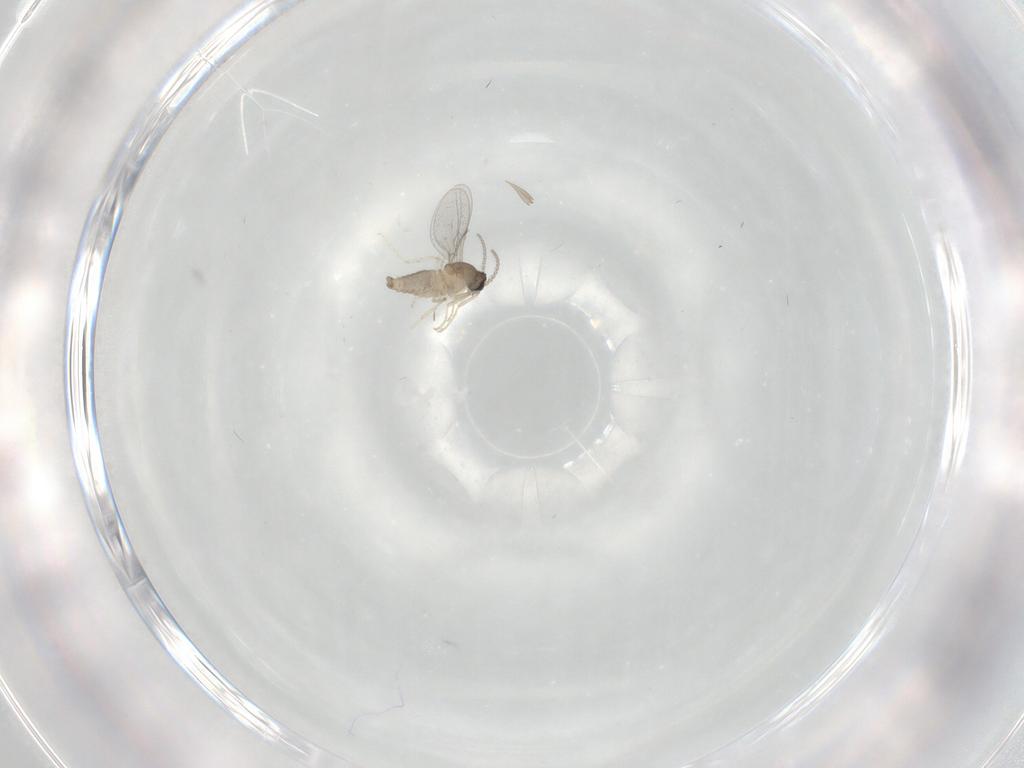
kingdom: Animalia
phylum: Arthropoda
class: Insecta
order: Diptera
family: Cecidomyiidae
